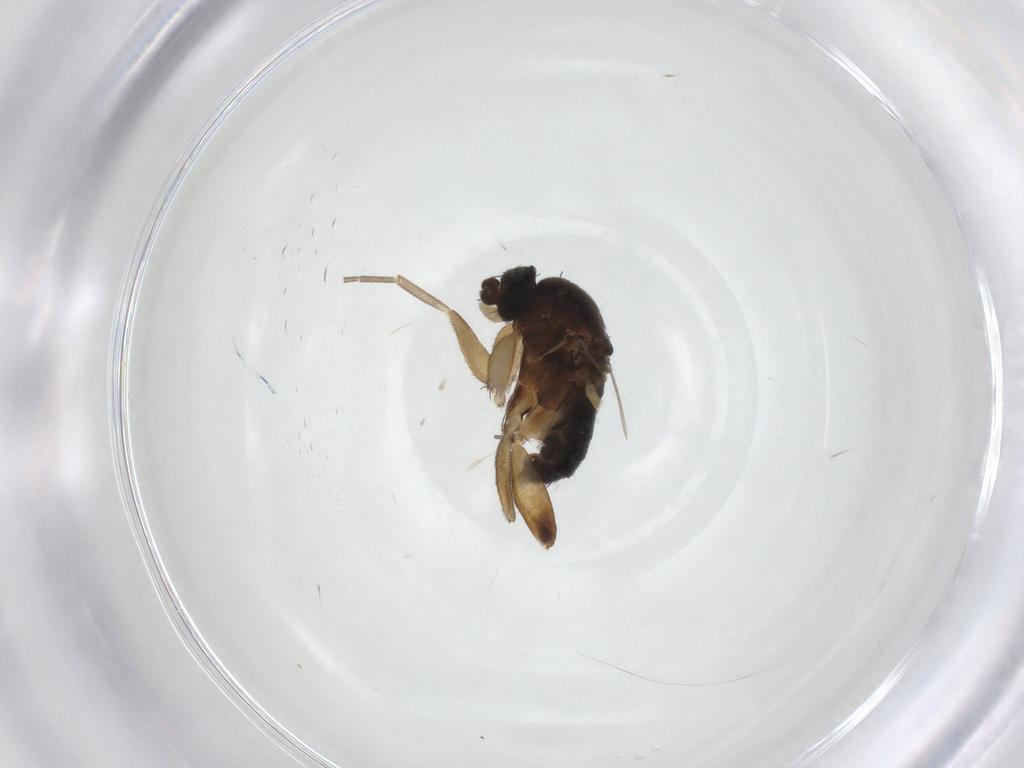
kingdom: Animalia
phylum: Arthropoda
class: Insecta
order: Diptera
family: Phoridae
